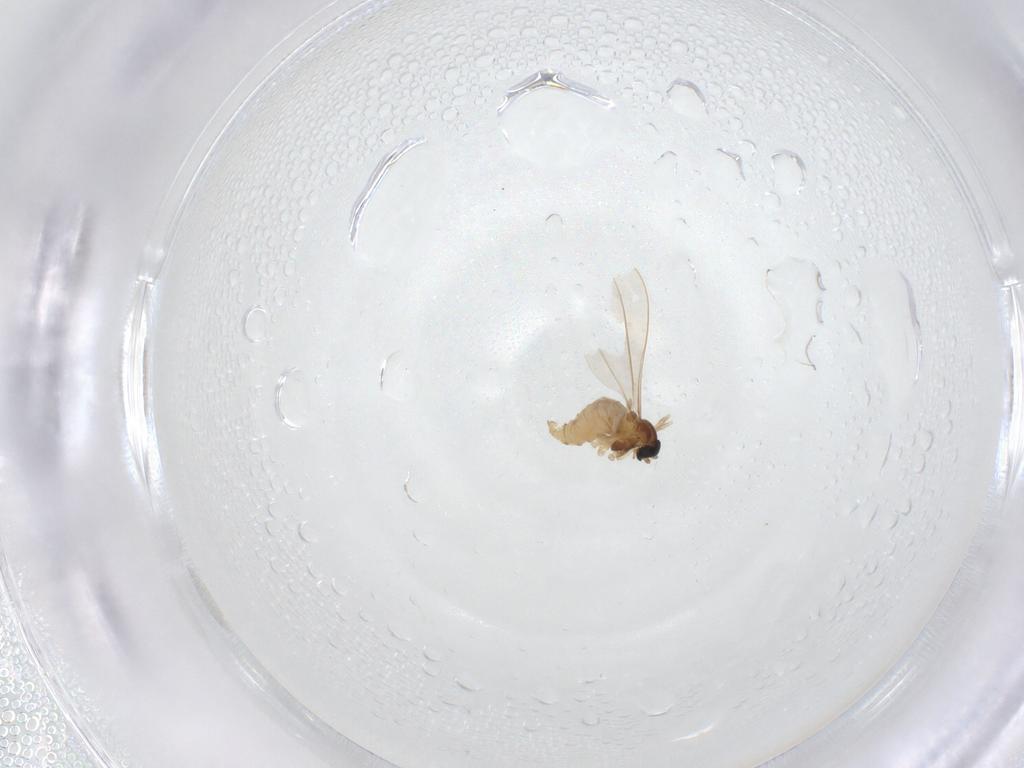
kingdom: Animalia
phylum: Arthropoda
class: Insecta
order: Diptera
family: Cecidomyiidae
